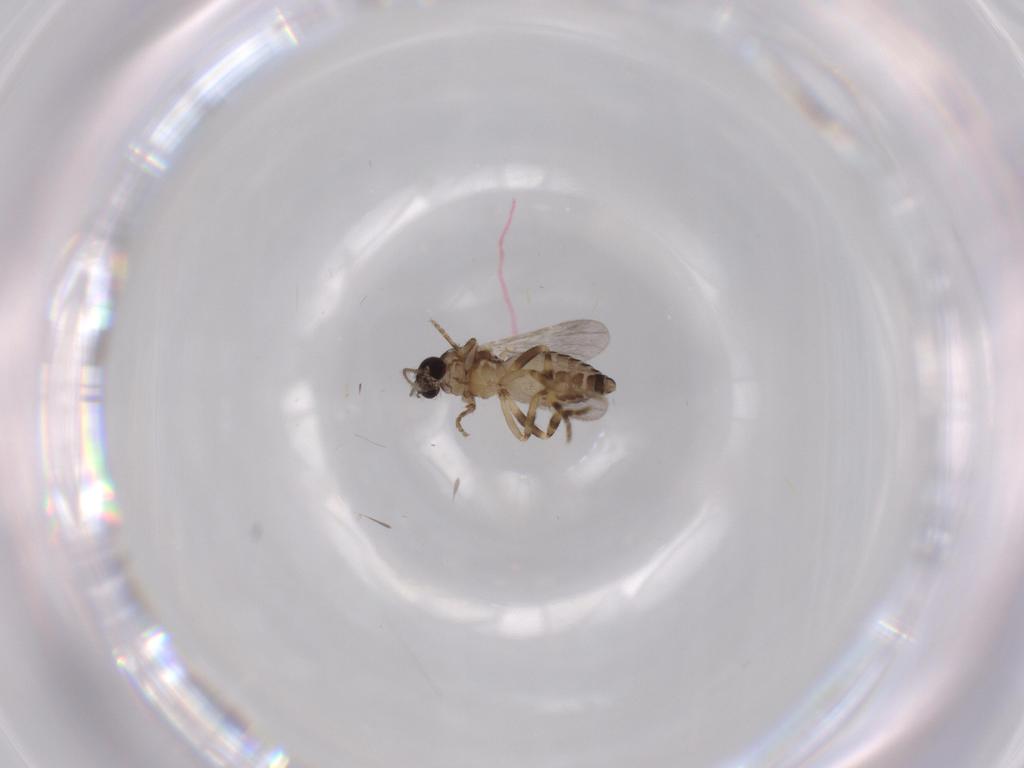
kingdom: Animalia
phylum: Arthropoda
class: Insecta
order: Diptera
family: Ceratopogonidae
